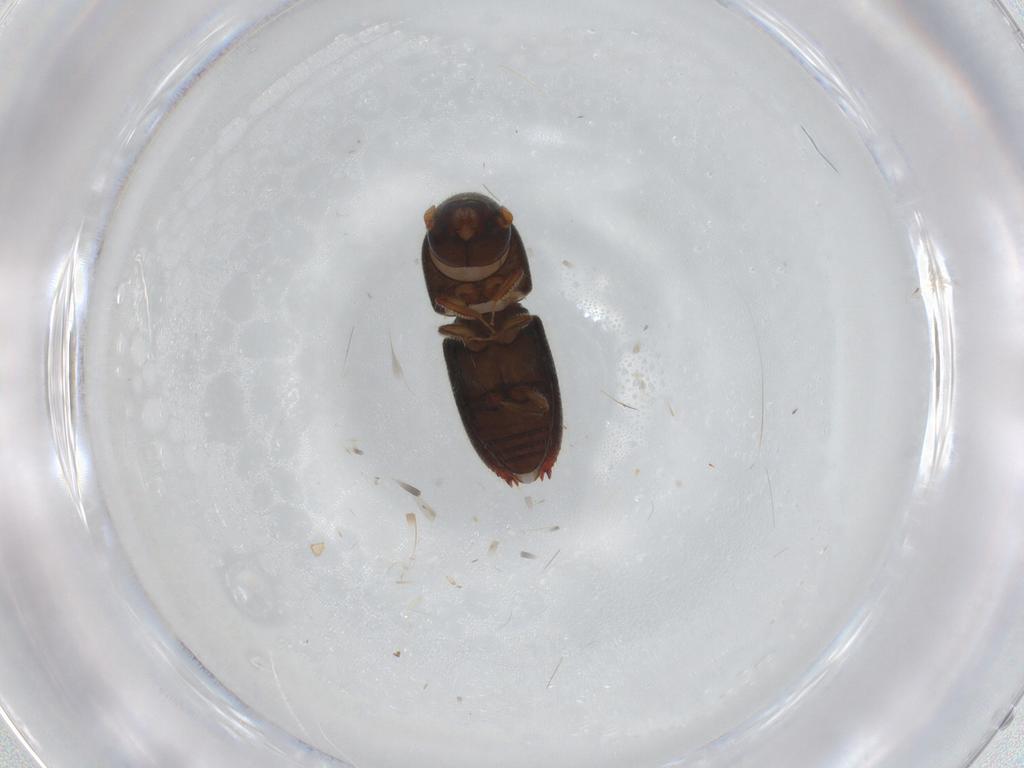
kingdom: Animalia
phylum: Arthropoda
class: Insecta
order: Coleoptera
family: Curculionidae
